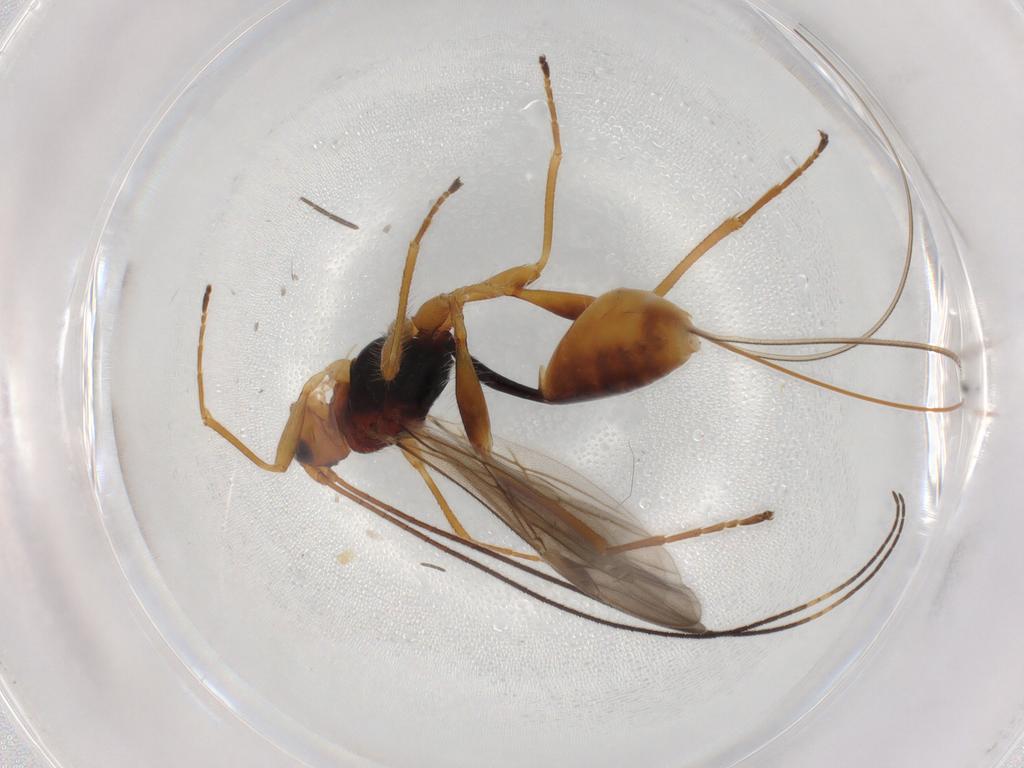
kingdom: Animalia
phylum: Arthropoda
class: Insecta
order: Hymenoptera
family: Braconidae
